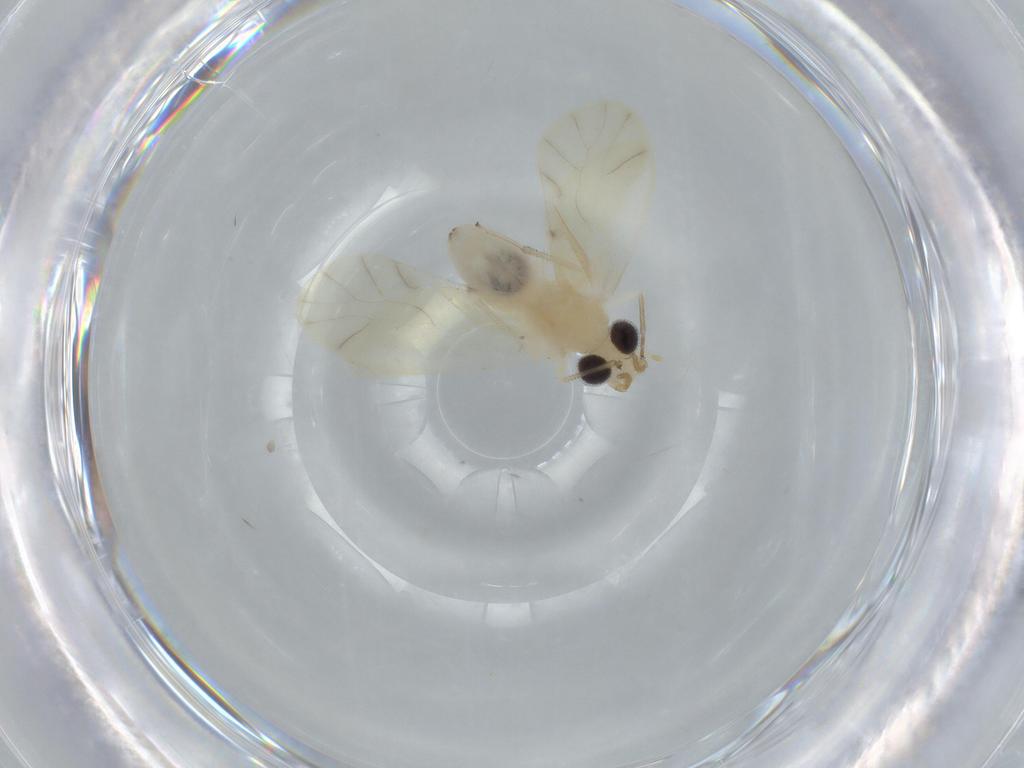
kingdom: Animalia
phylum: Arthropoda
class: Insecta
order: Psocodea
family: Caeciliusidae
